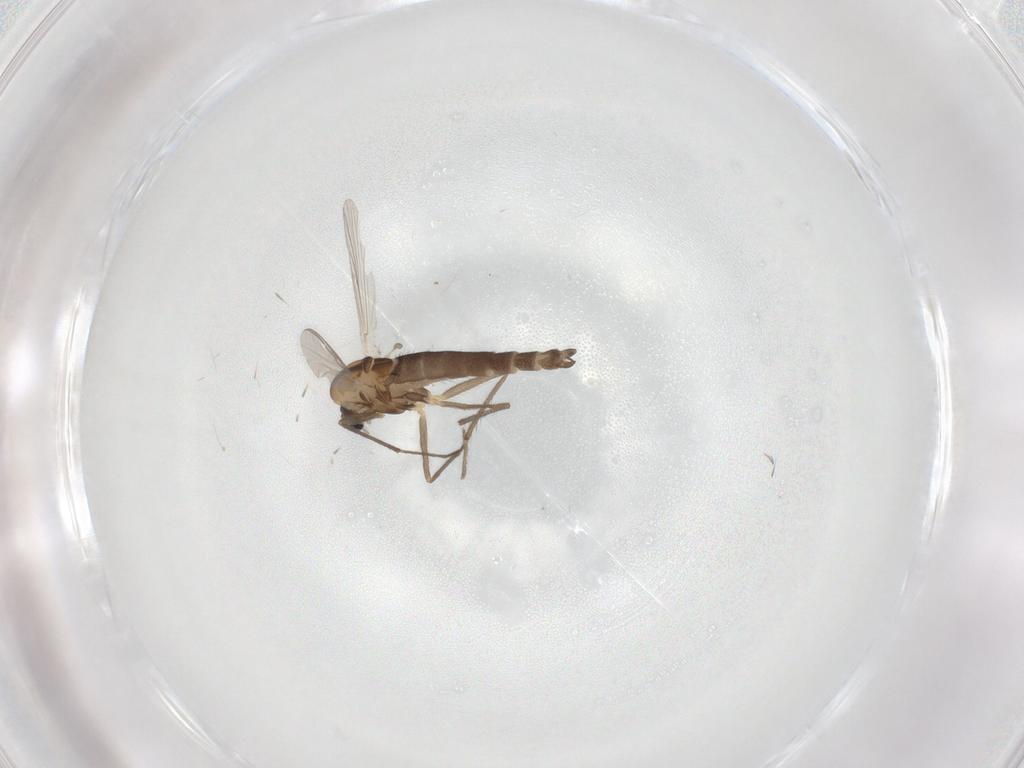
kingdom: Animalia
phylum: Arthropoda
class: Insecta
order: Diptera
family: Chironomidae
